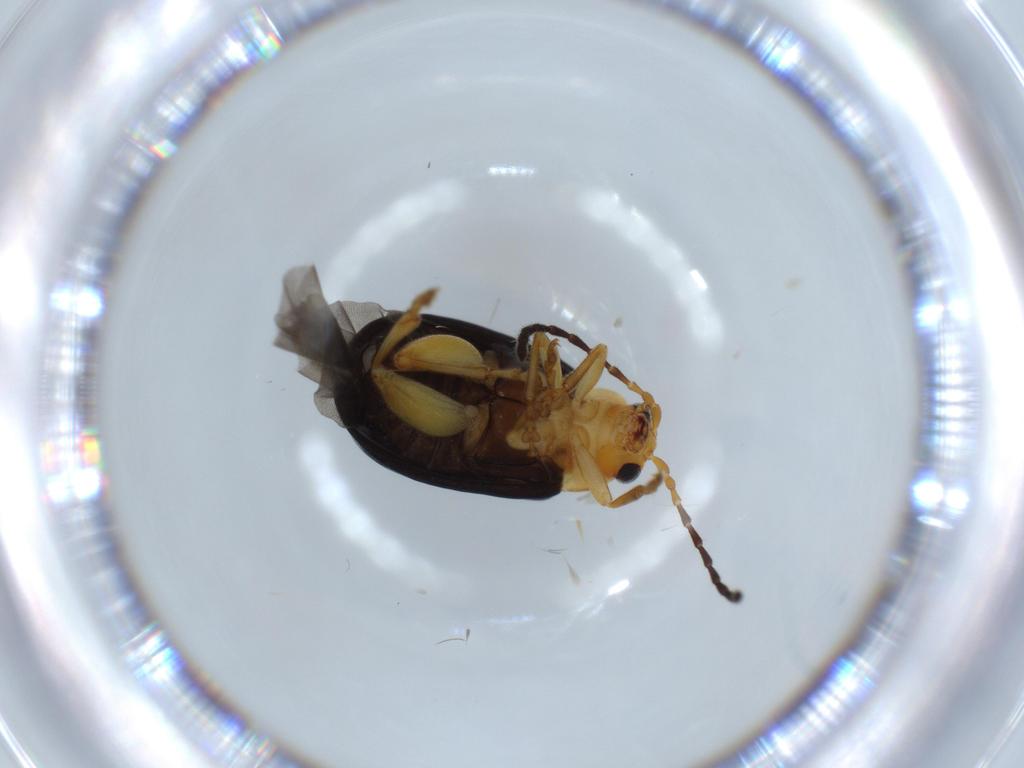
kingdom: Animalia
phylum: Arthropoda
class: Insecta
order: Coleoptera
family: Chrysomelidae
